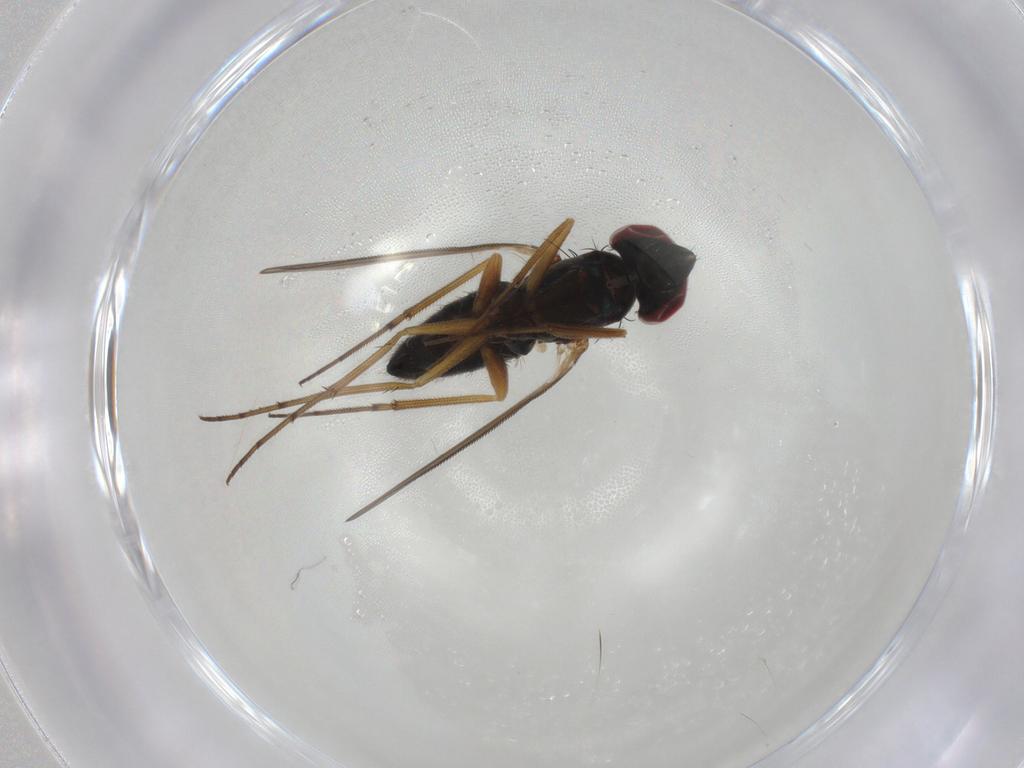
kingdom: Animalia
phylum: Arthropoda
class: Insecta
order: Diptera
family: Dolichopodidae
